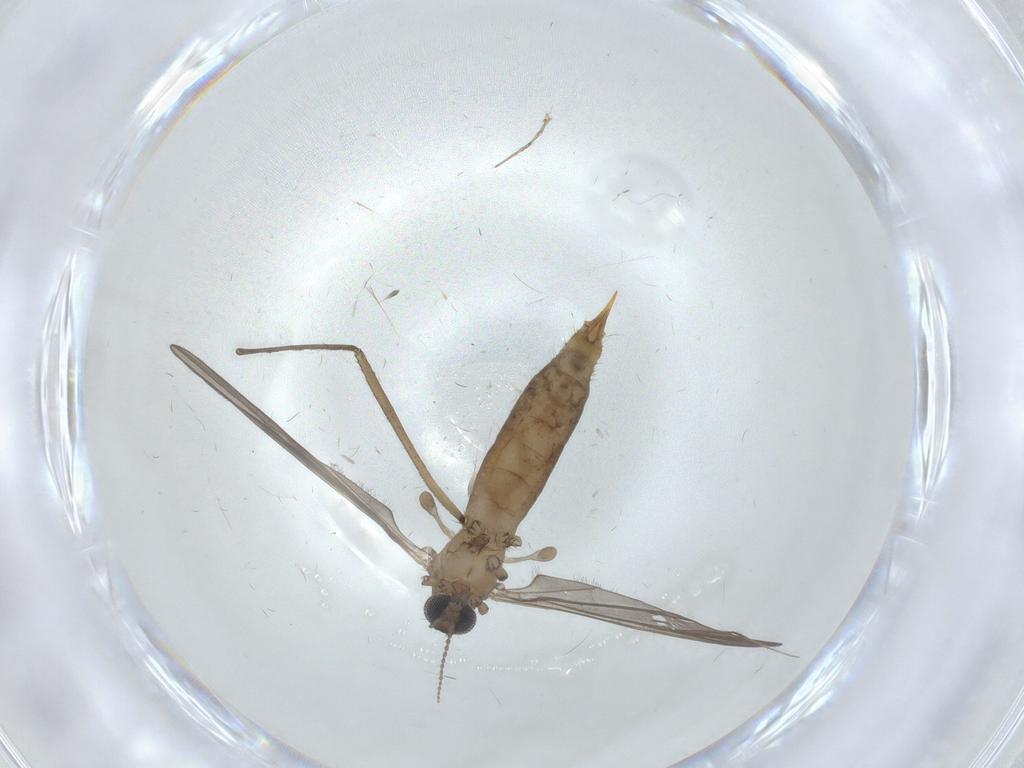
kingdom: Animalia
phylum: Arthropoda
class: Insecta
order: Diptera
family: Limoniidae
